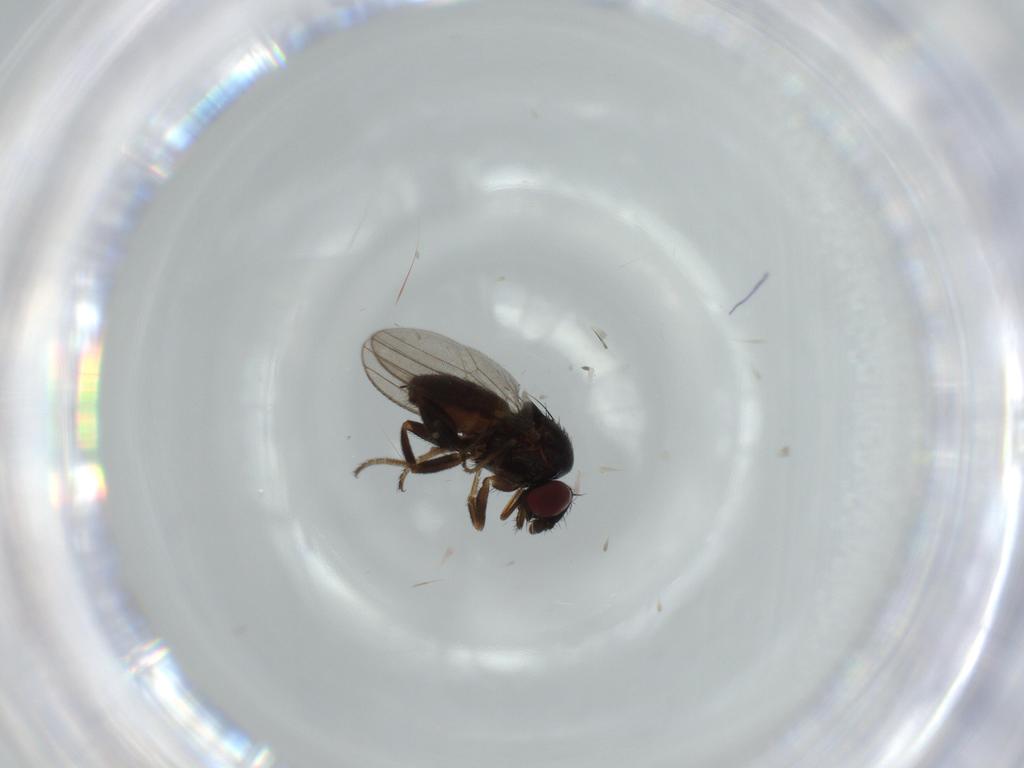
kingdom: Animalia
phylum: Arthropoda
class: Insecta
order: Diptera
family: Milichiidae
